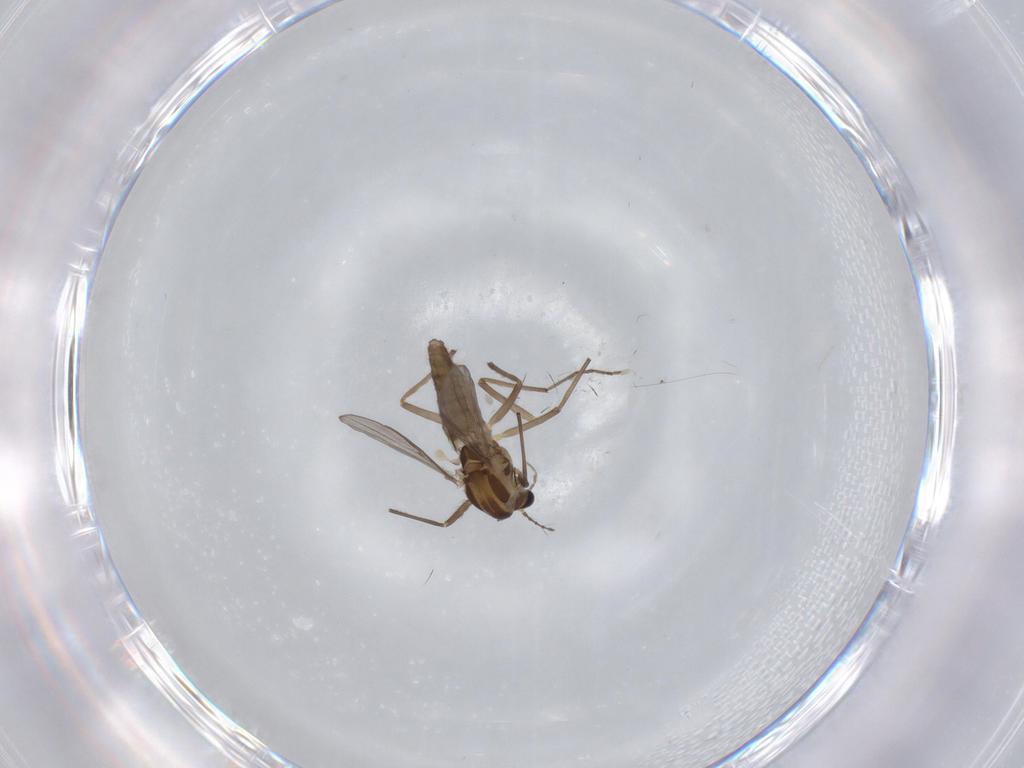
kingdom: Animalia
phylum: Arthropoda
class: Insecta
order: Diptera
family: Chironomidae
